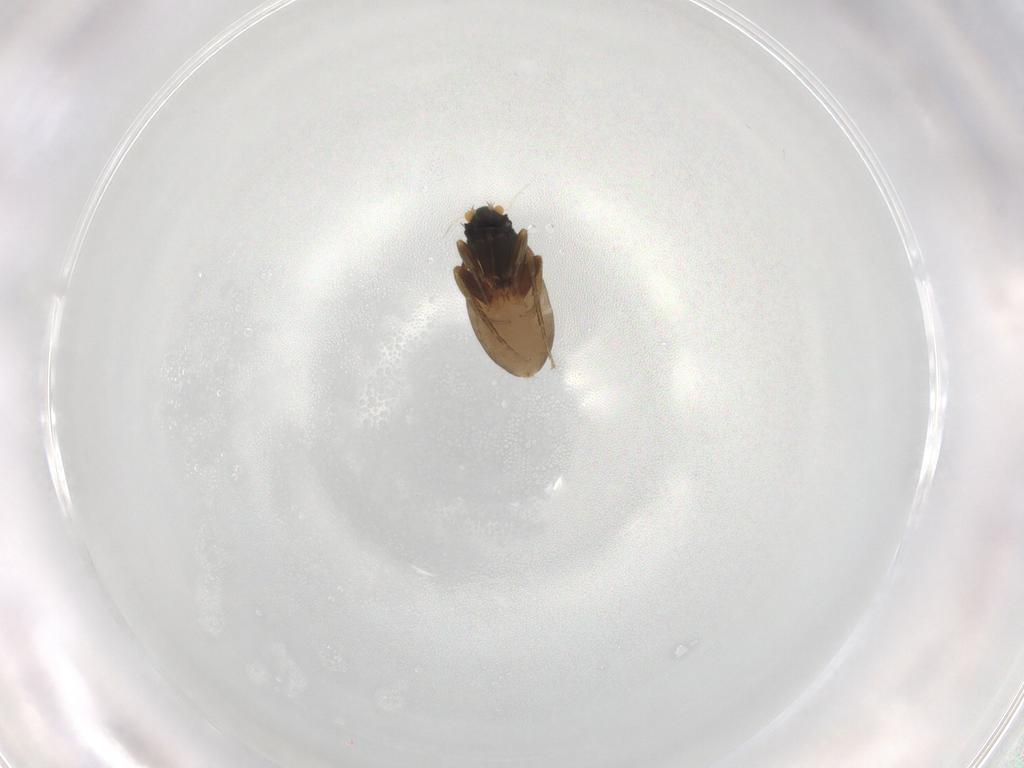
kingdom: Animalia
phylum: Arthropoda
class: Insecta
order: Diptera
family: Phoridae
